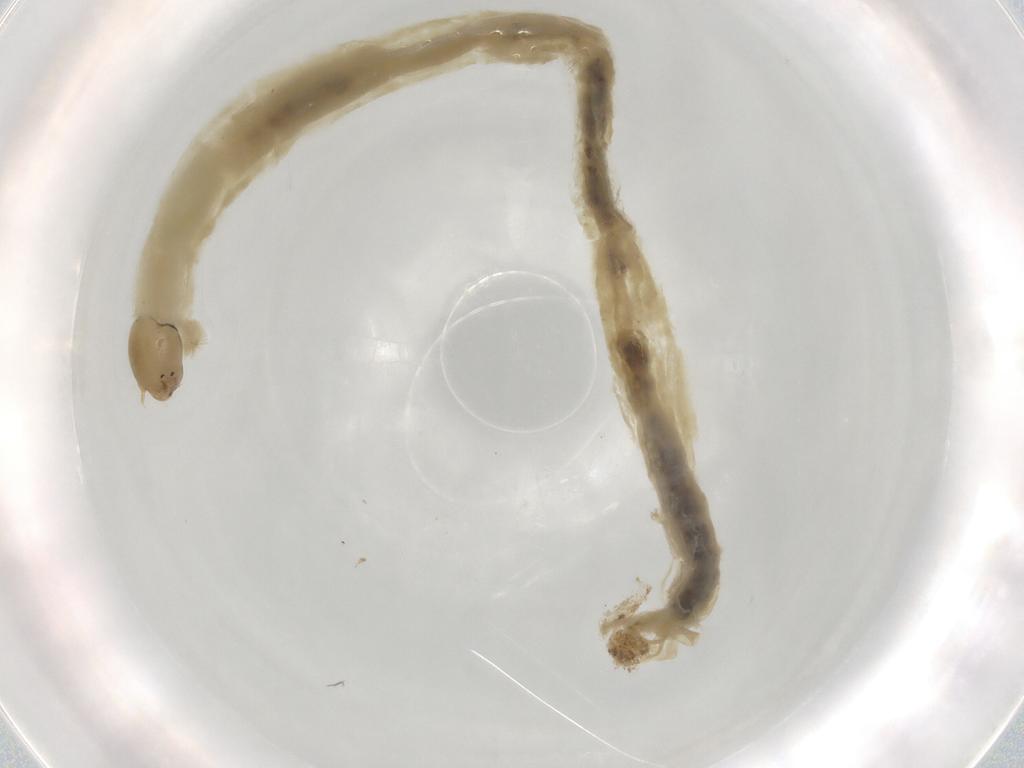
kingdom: Animalia
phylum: Arthropoda
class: Insecta
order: Diptera
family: Chironomidae
